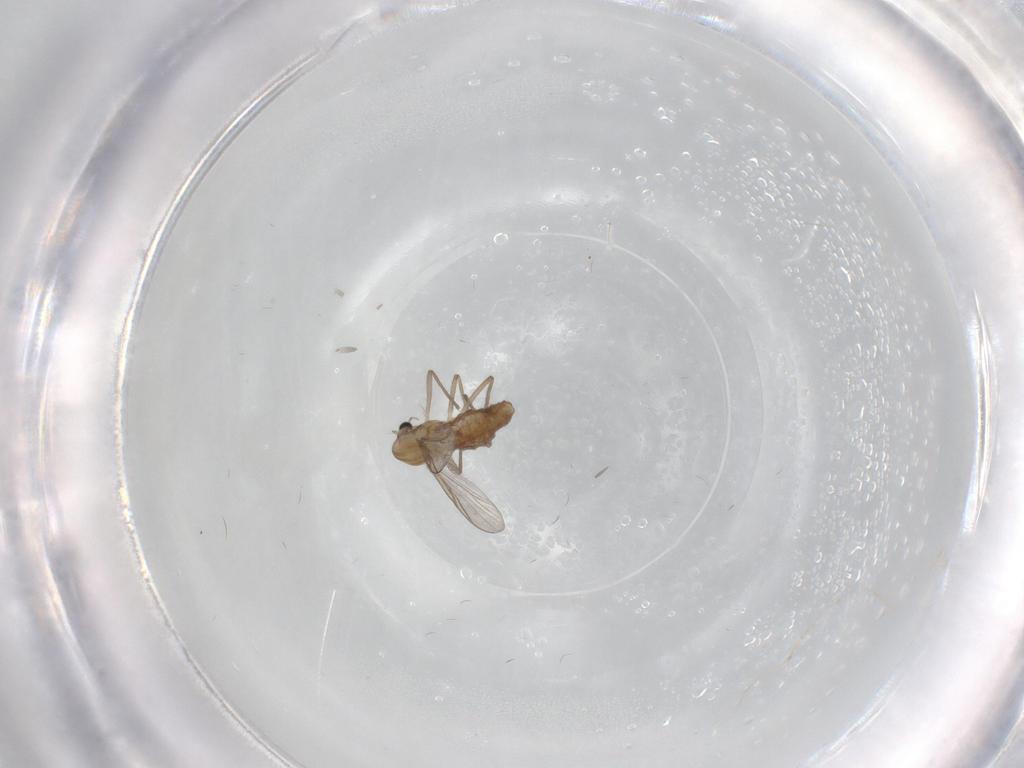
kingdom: Animalia
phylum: Arthropoda
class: Insecta
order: Diptera
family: Chironomidae
